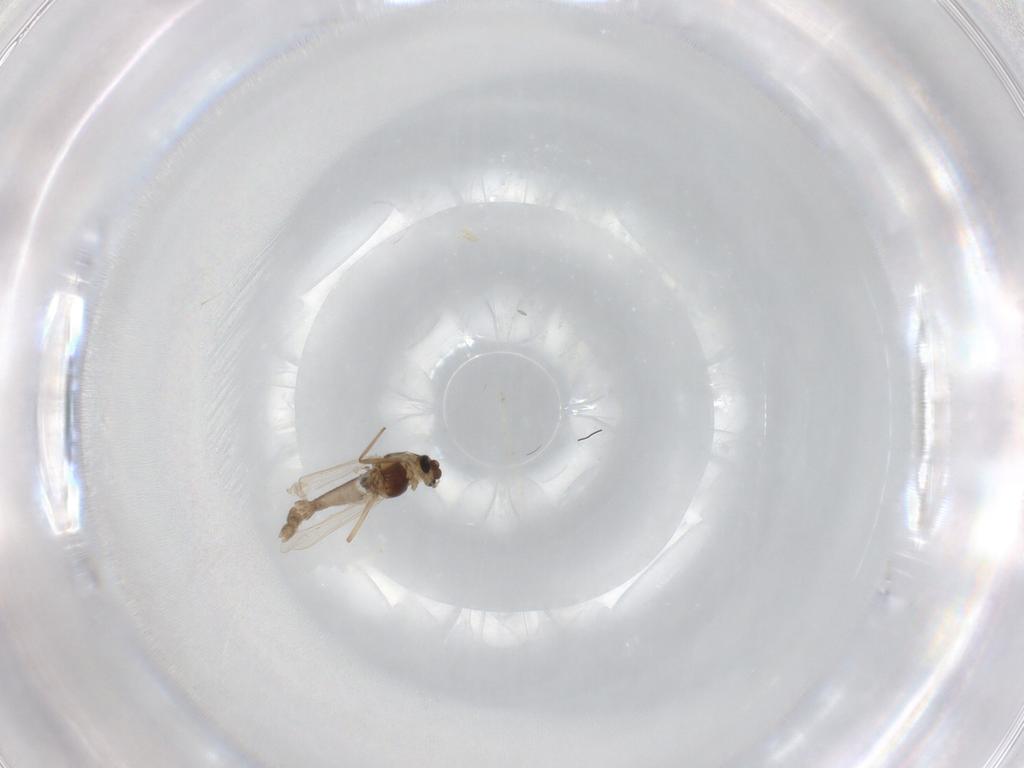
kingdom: Animalia
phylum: Arthropoda
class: Insecta
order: Diptera
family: Chironomidae
